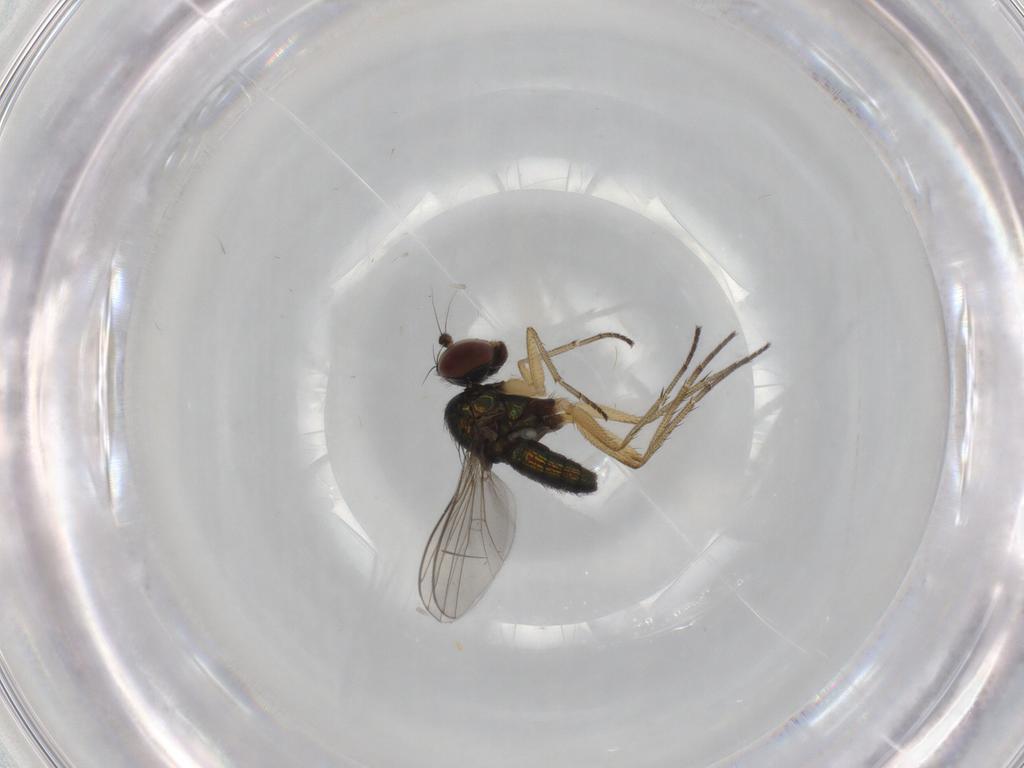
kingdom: Animalia
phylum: Arthropoda
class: Insecta
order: Diptera
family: Dolichopodidae
